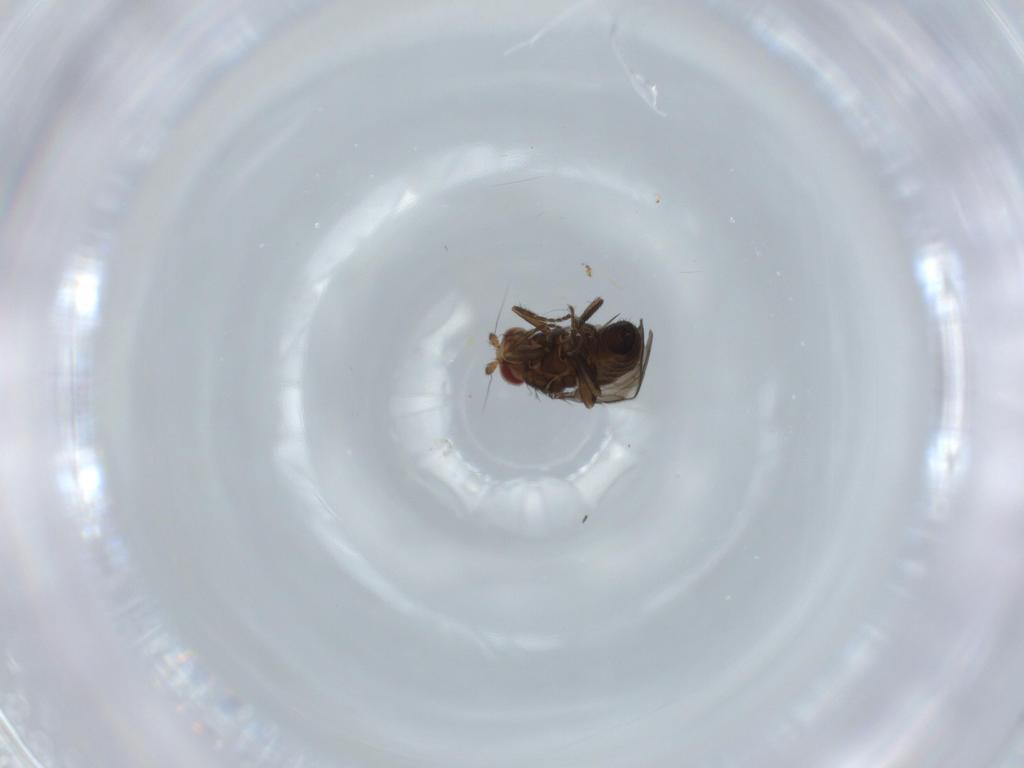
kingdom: Animalia
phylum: Arthropoda
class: Insecta
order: Diptera
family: Sphaeroceridae
